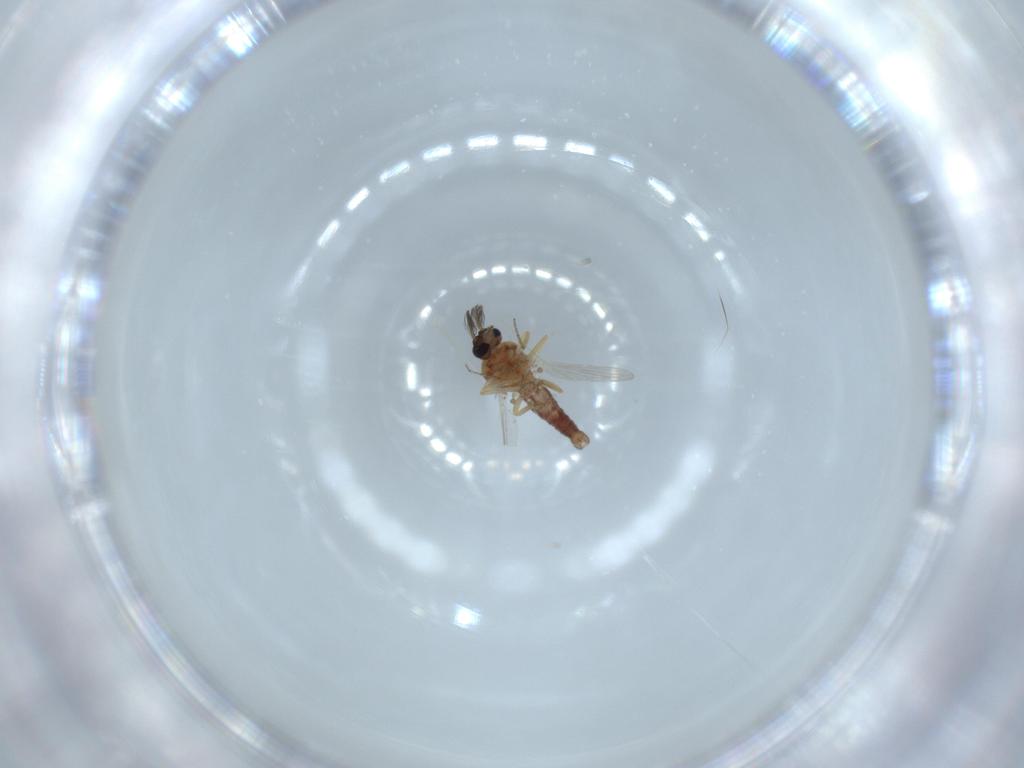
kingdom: Animalia
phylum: Arthropoda
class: Insecta
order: Diptera
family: Ceratopogonidae
